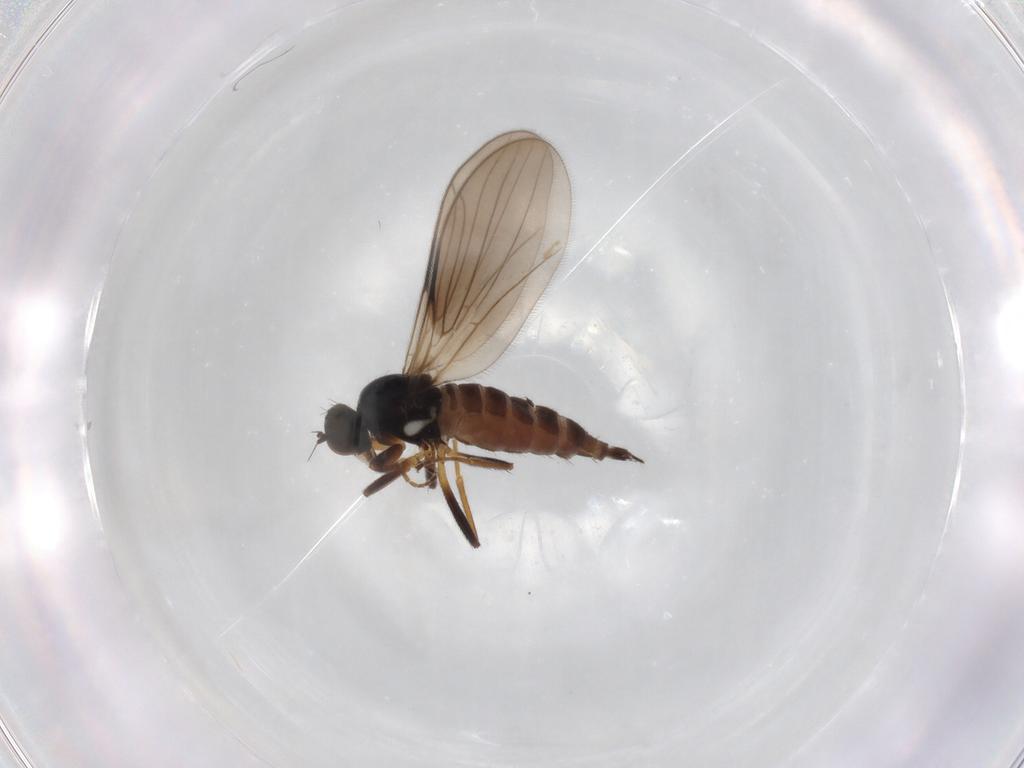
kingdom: Animalia
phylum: Arthropoda
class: Insecta
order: Diptera
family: Hybotidae
